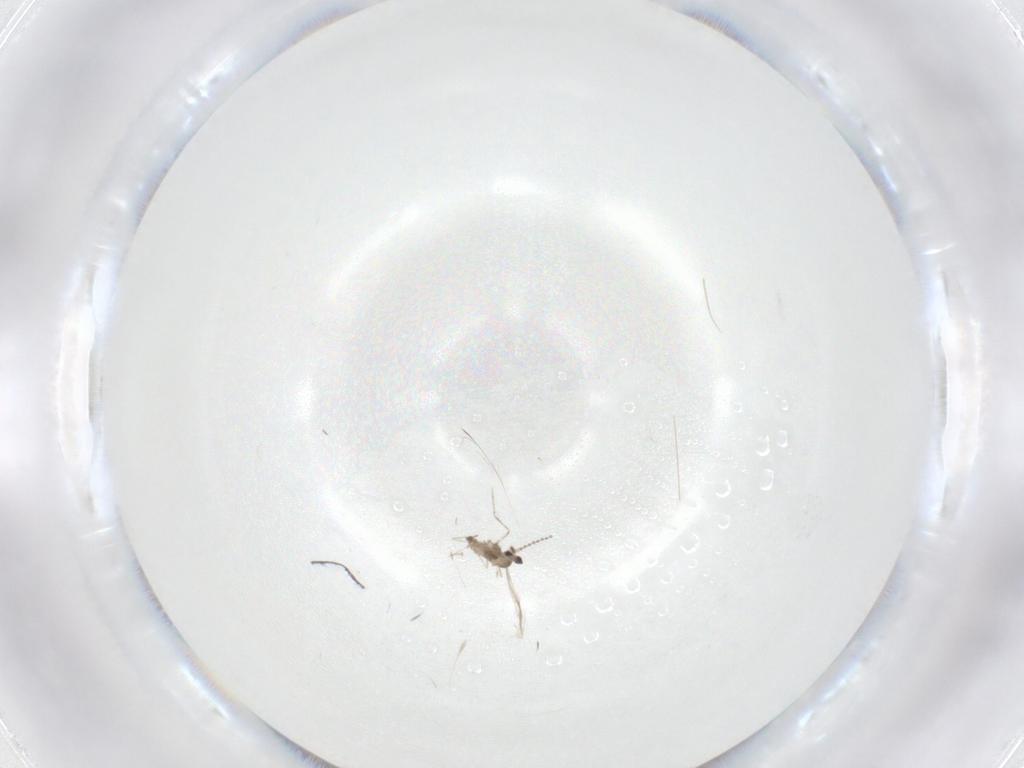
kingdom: Animalia
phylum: Arthropoda
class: Insecta
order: Diptera
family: Cecidomyiidae
